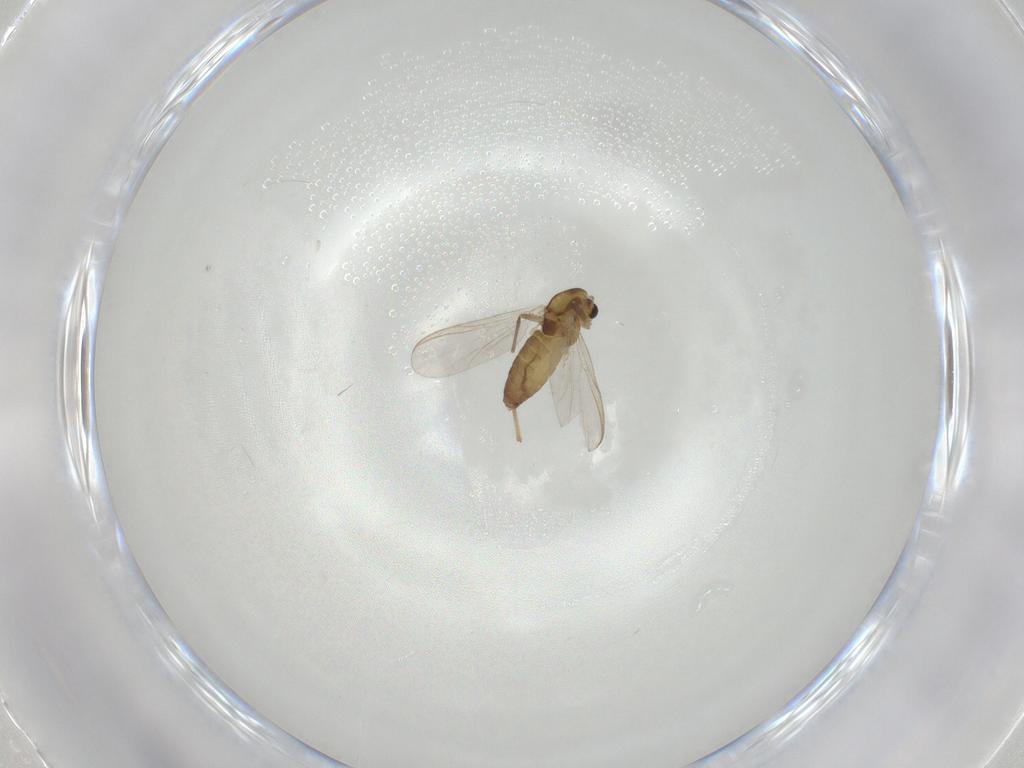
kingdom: Animalia
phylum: Arthropoda
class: Insecta
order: Diptera
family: Chironomidae
